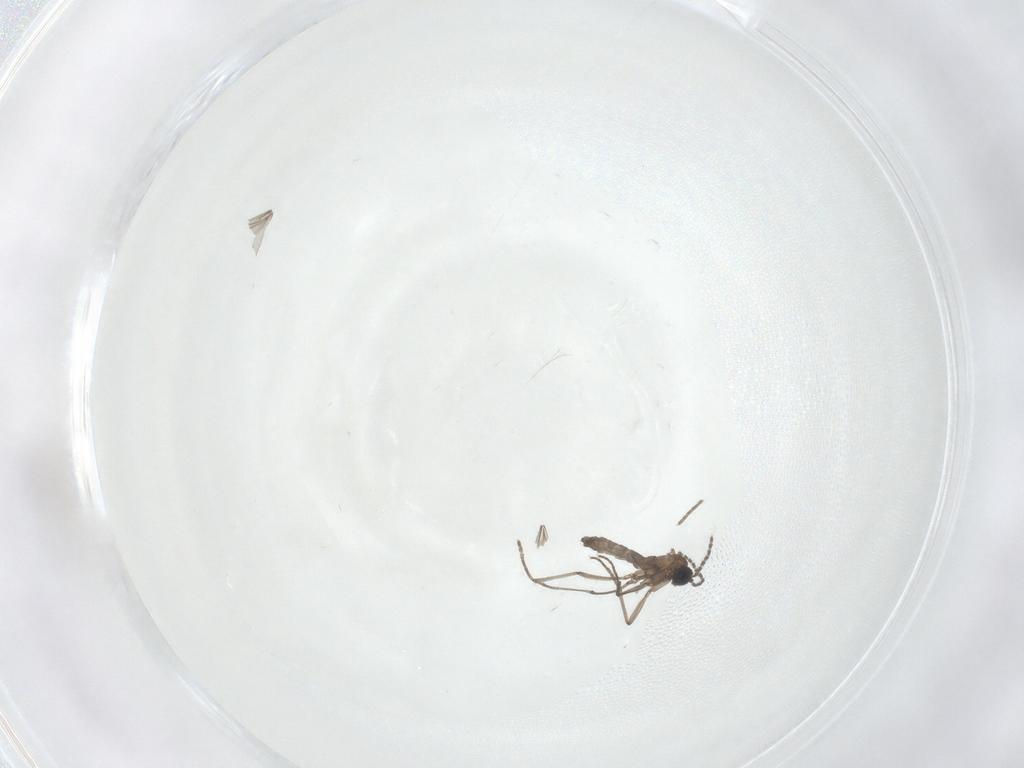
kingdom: Animalia
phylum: Arthropoda
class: Insecta
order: Diptera
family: Sciaridae
